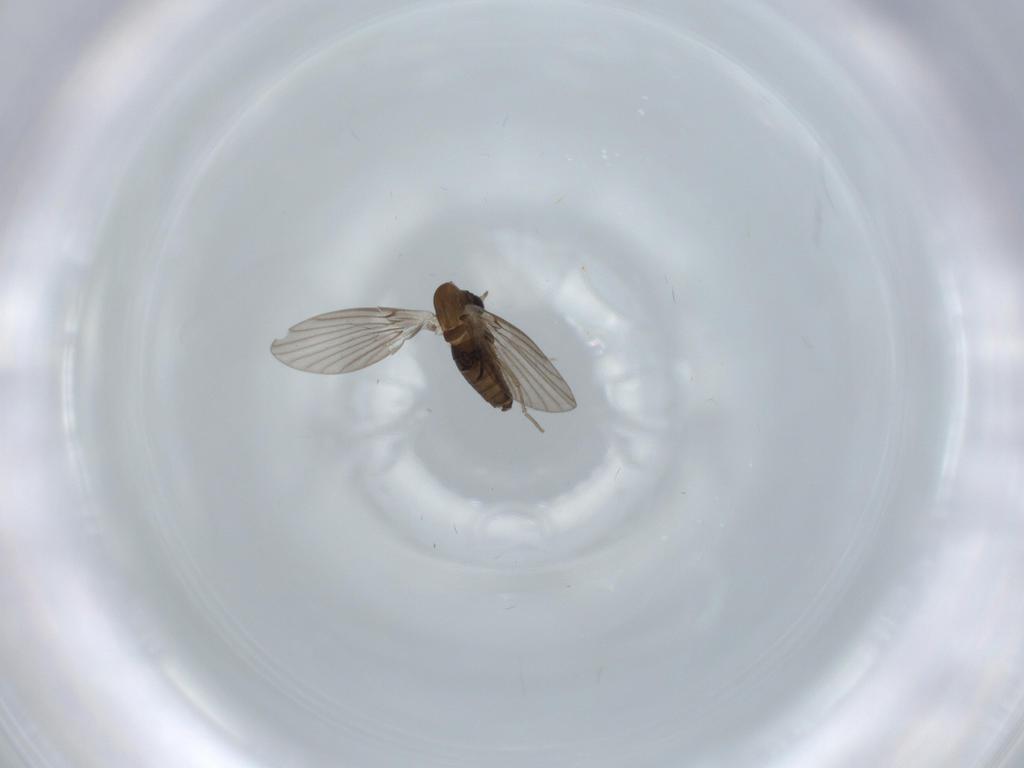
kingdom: Animalia
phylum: Arthropoda
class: Insecta
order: Diptera
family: Psychodidae
